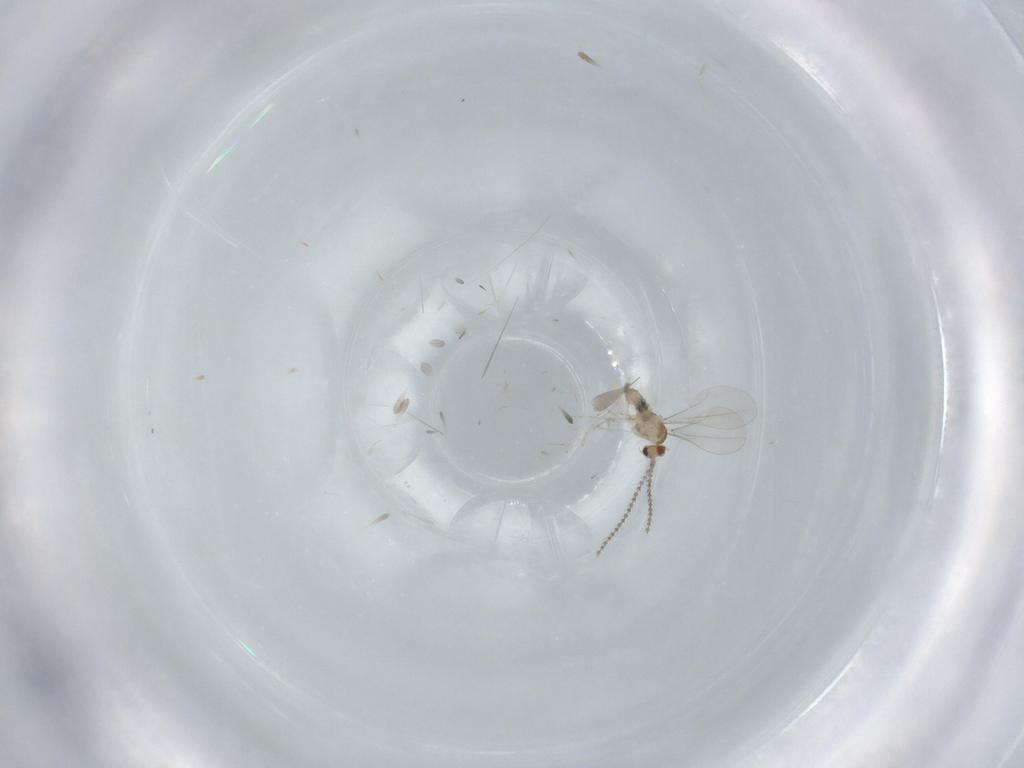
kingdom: Animalia
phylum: Arthropoda
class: Insecta
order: Diptera
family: Cecidomyiidae
